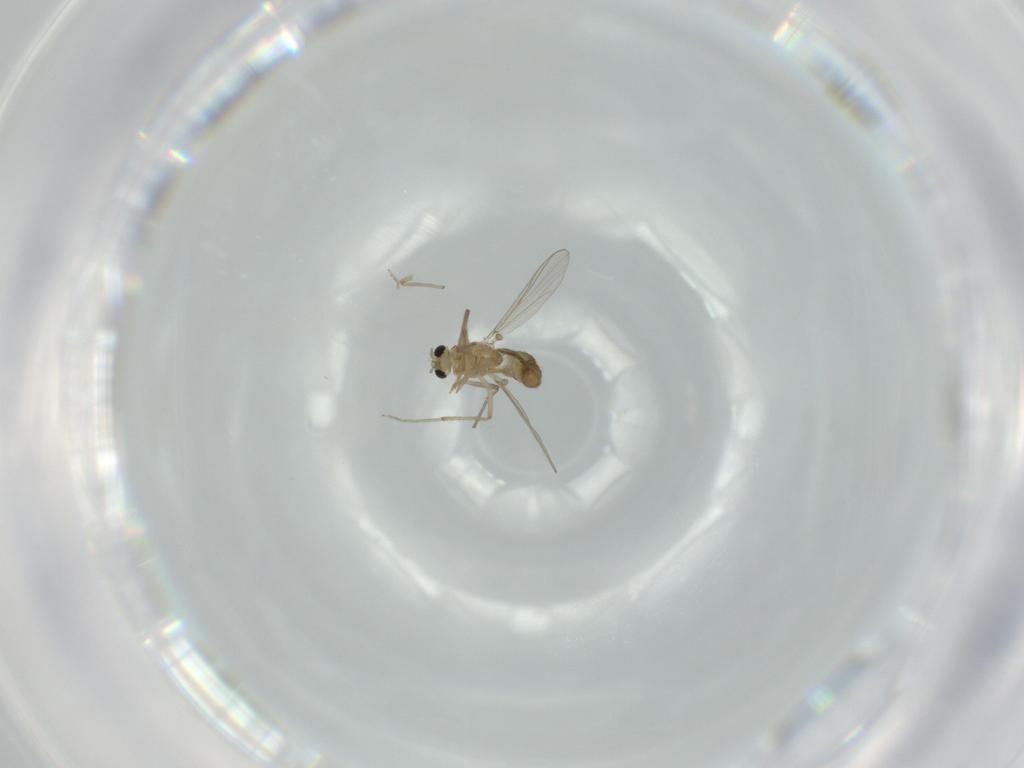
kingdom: Animalia
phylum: Arthropoda
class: Insecta
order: Diptera
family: Chironomidae
